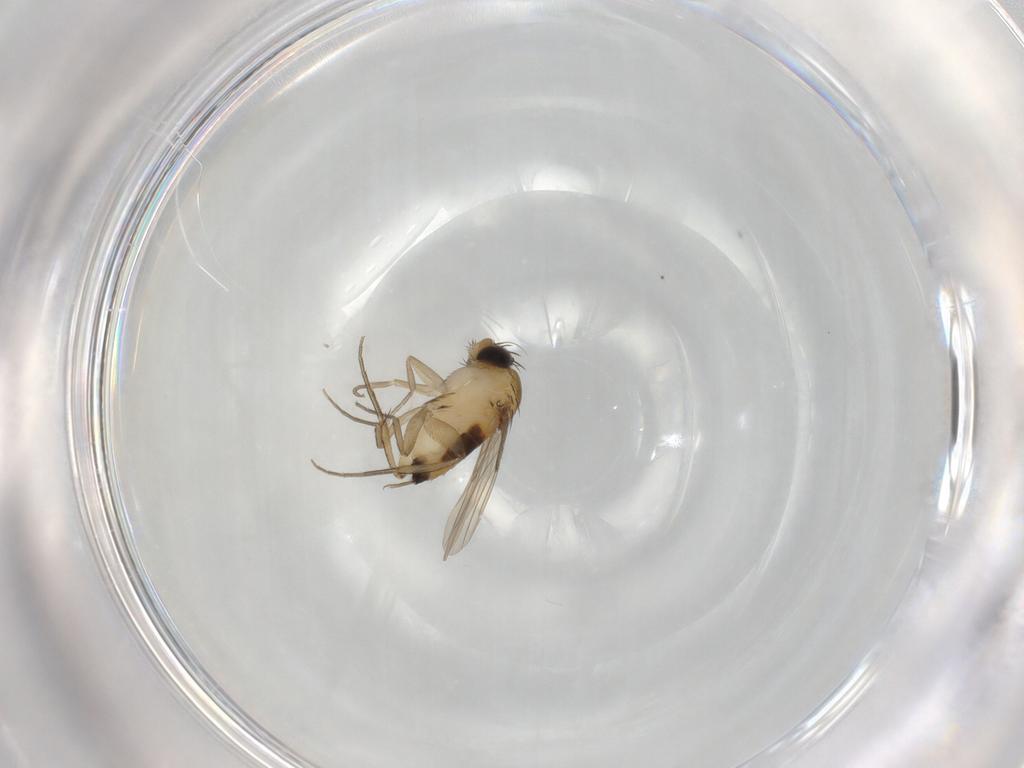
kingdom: Animalia
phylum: Arthropoda
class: Insecta
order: Diptera
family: Phoridae
